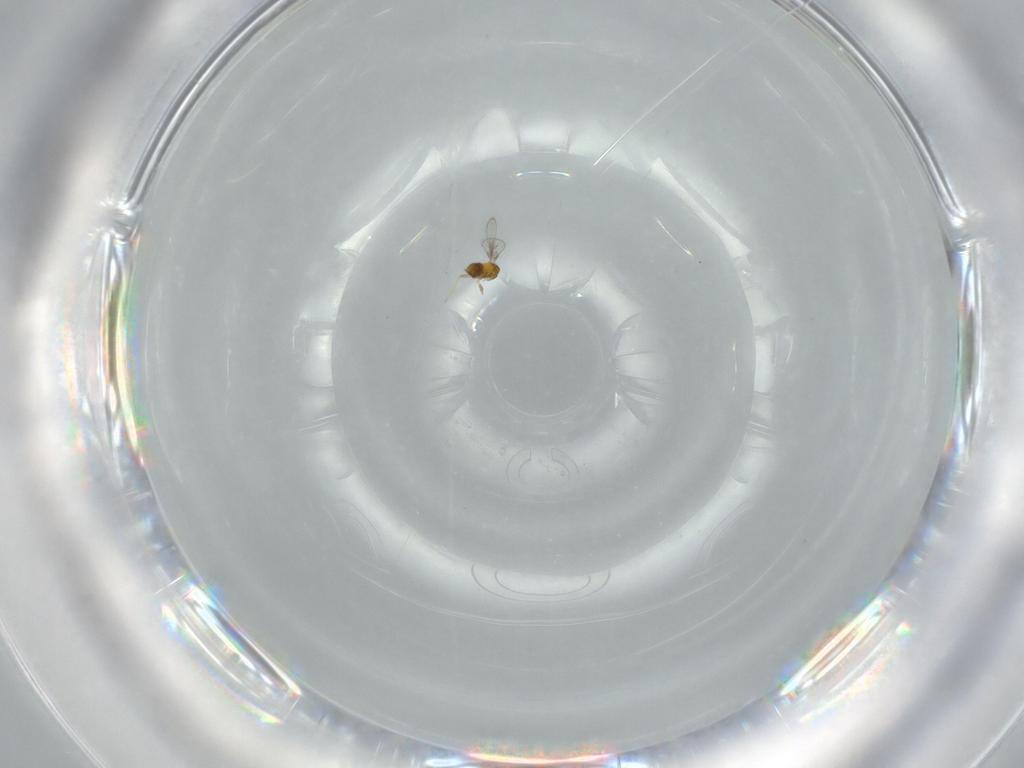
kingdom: Animalia
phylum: Arthropoda
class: Insecta
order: Hymenoptera
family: Trichogrammatidae
